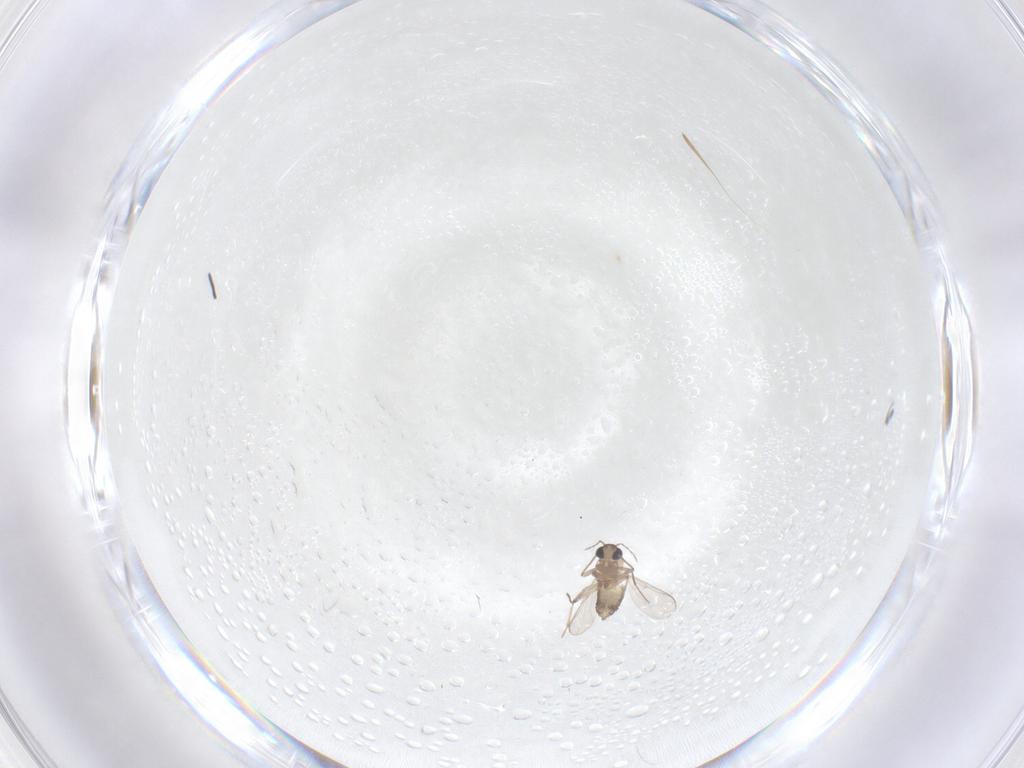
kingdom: Animalia
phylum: Arthropoda
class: Insecta
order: Diptera
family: Chironomidae
